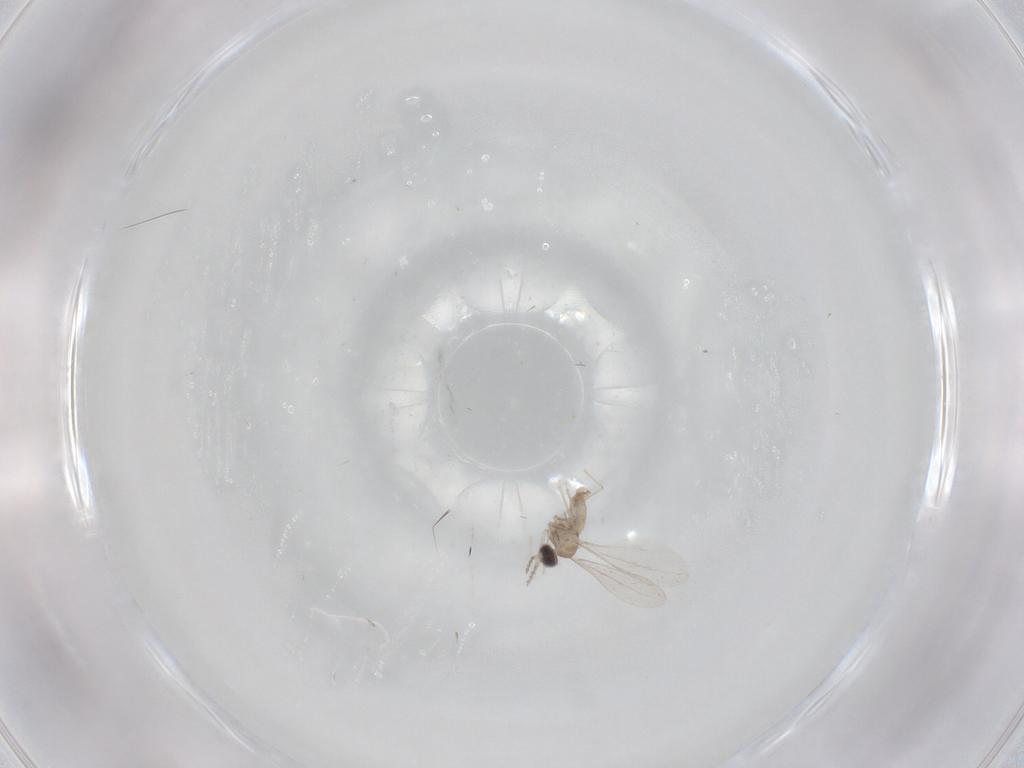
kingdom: Animalia
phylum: Arthropoda
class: Insecta
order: Diptera
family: Cecidomyiidae
